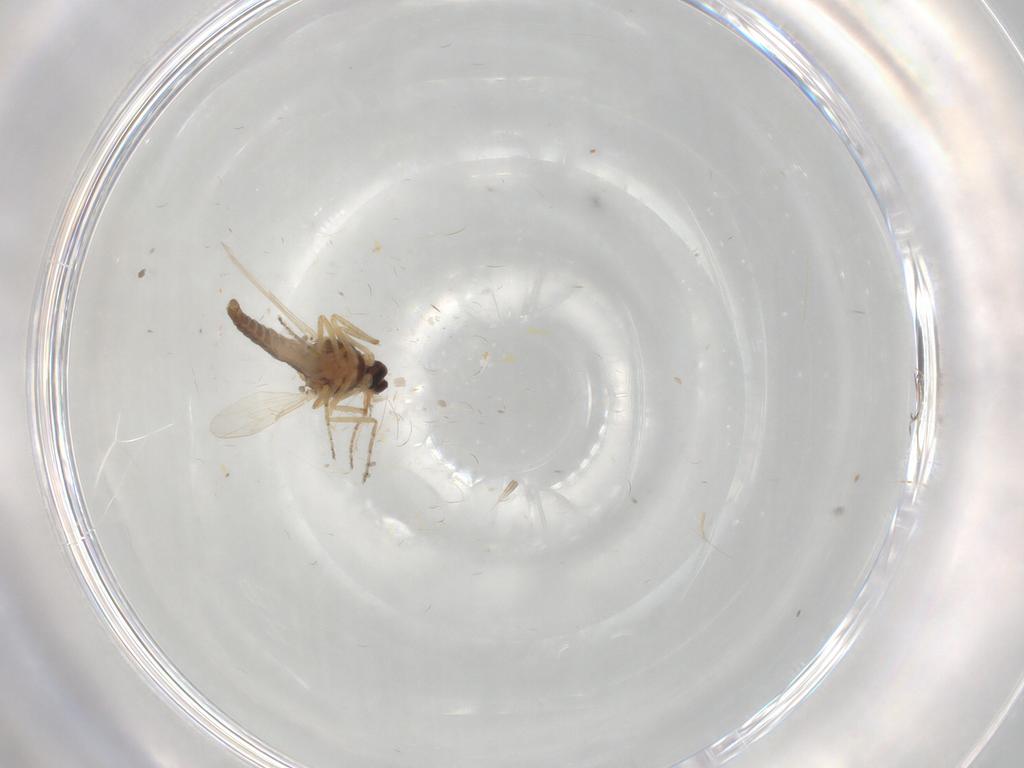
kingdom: Animalia
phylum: Arthropoda
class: Insecta
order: Diptera
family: Ceratopogonidae
